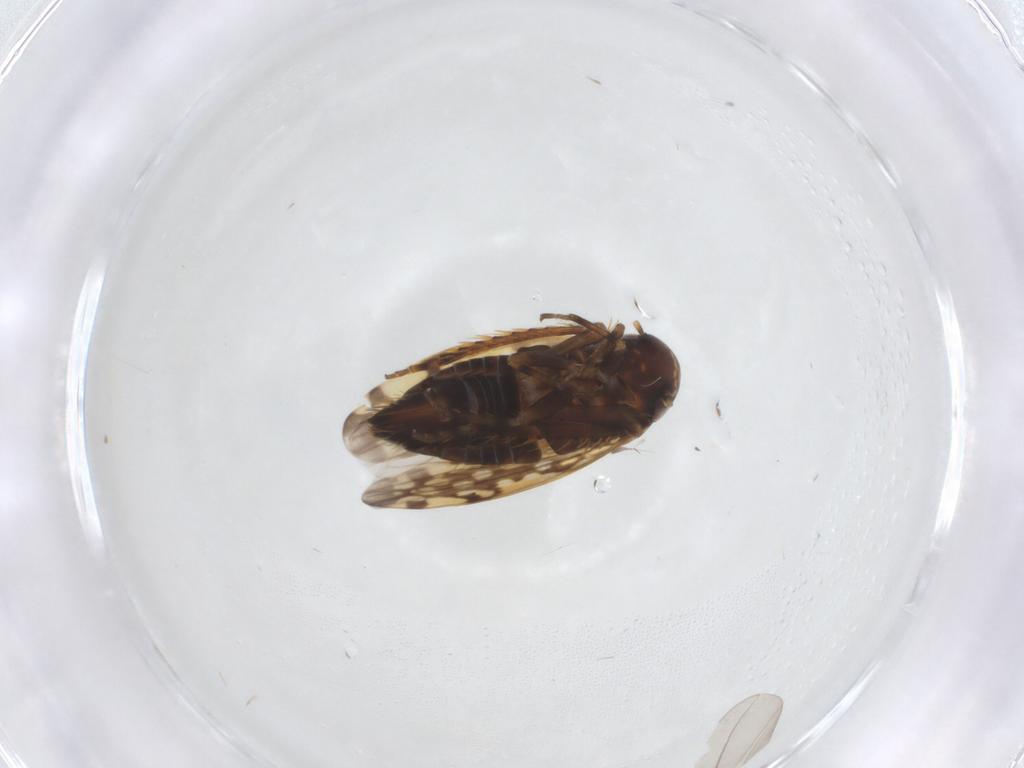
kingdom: Animalia
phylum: Arthropoda
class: Insecta
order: Hemiptera
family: Cicadellidae
